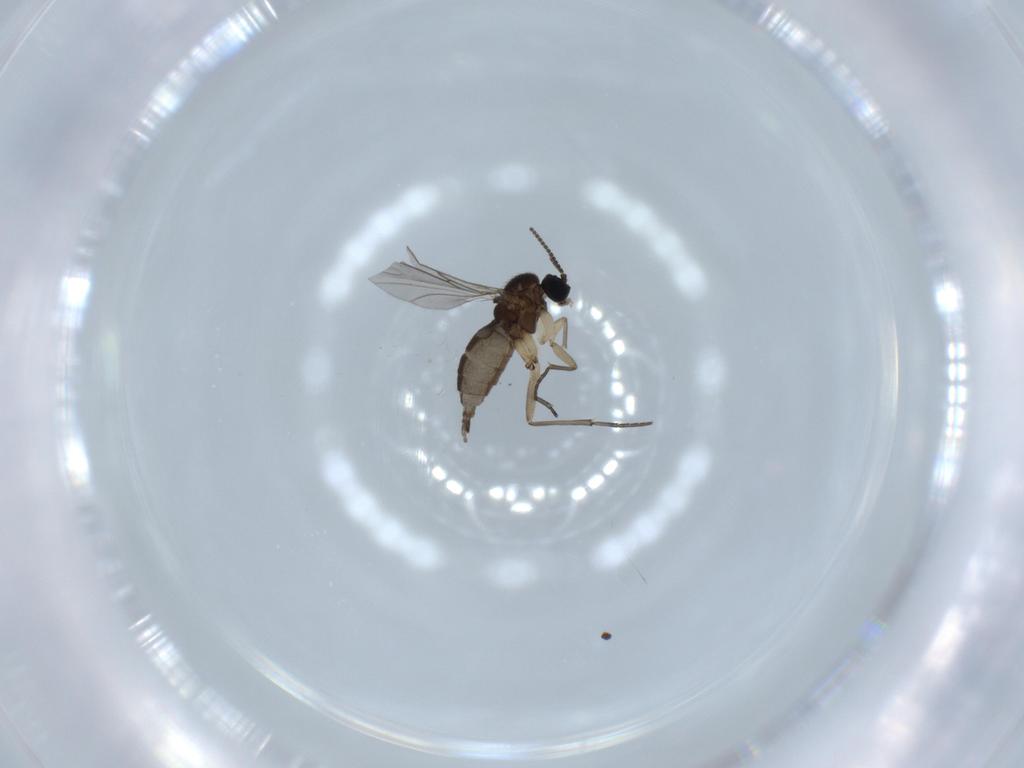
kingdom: Animalia
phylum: Arthropoda
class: Insecta
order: Diptera
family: Sciaridae
